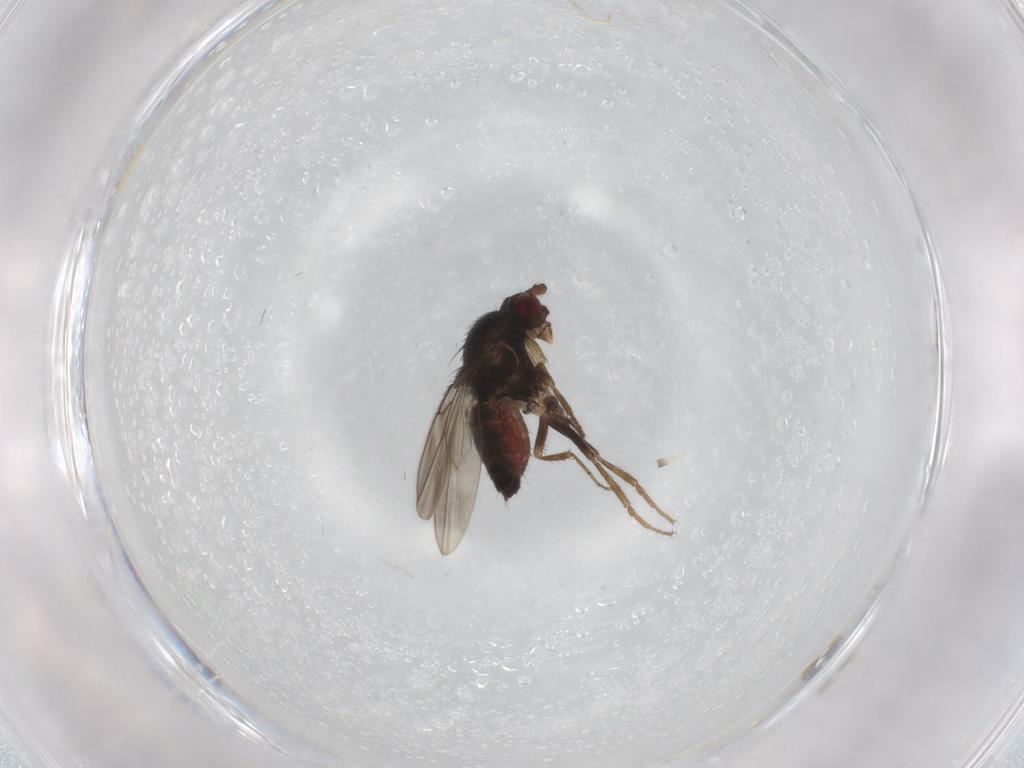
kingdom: Animalia
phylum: Arthropoda
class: Insecta
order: Diptera
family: Sphaeroceridae
